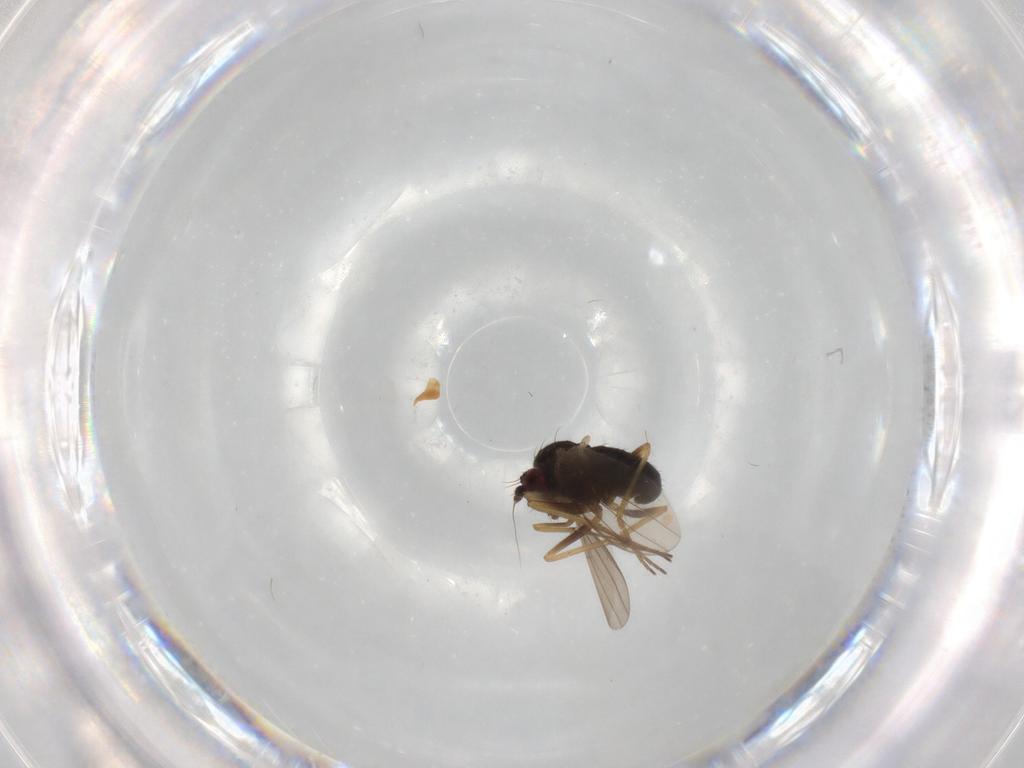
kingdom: Animalia
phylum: Arthropoda
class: Insecta
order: Diptera
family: Dolichopodidae
